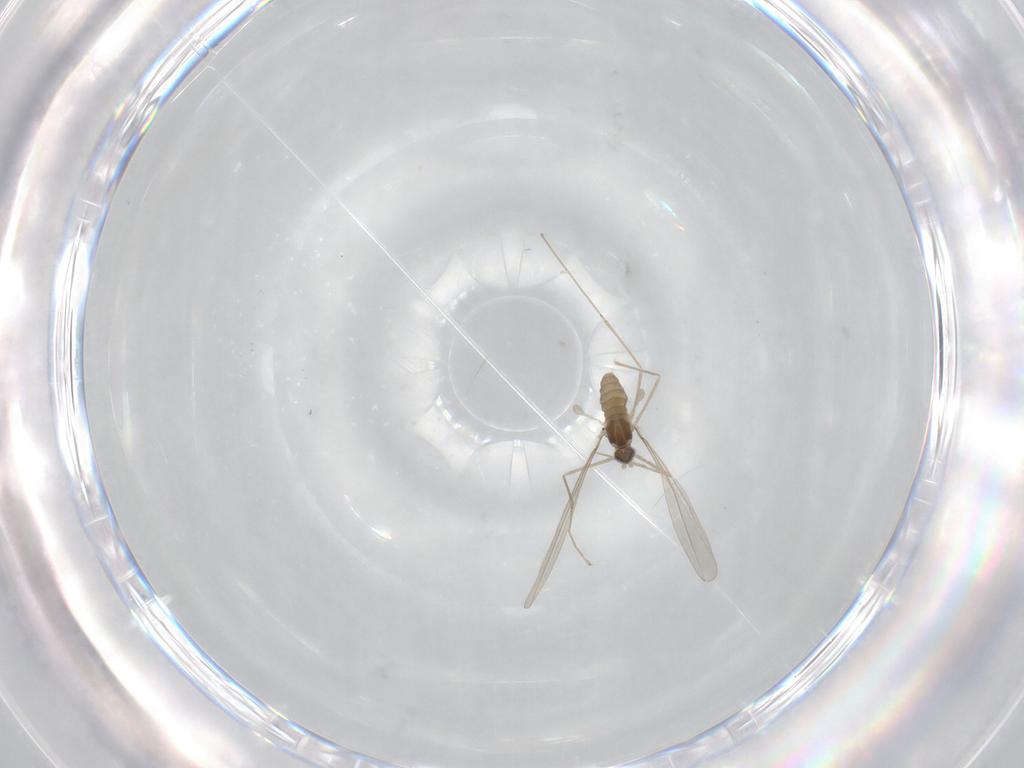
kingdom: Animalia
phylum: Arthropoda
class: Insecta
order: Diptera
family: Cecidomyiidae
